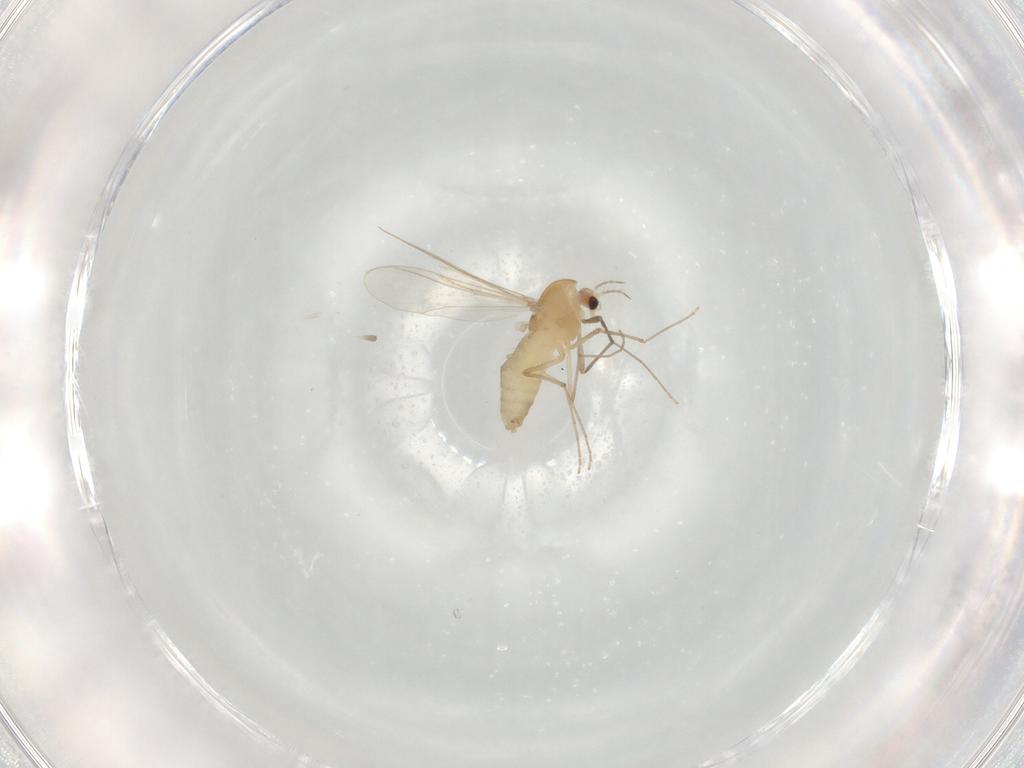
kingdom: Animalia
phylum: Arthropoda
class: Insecta
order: Diptera
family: Chironomidae
